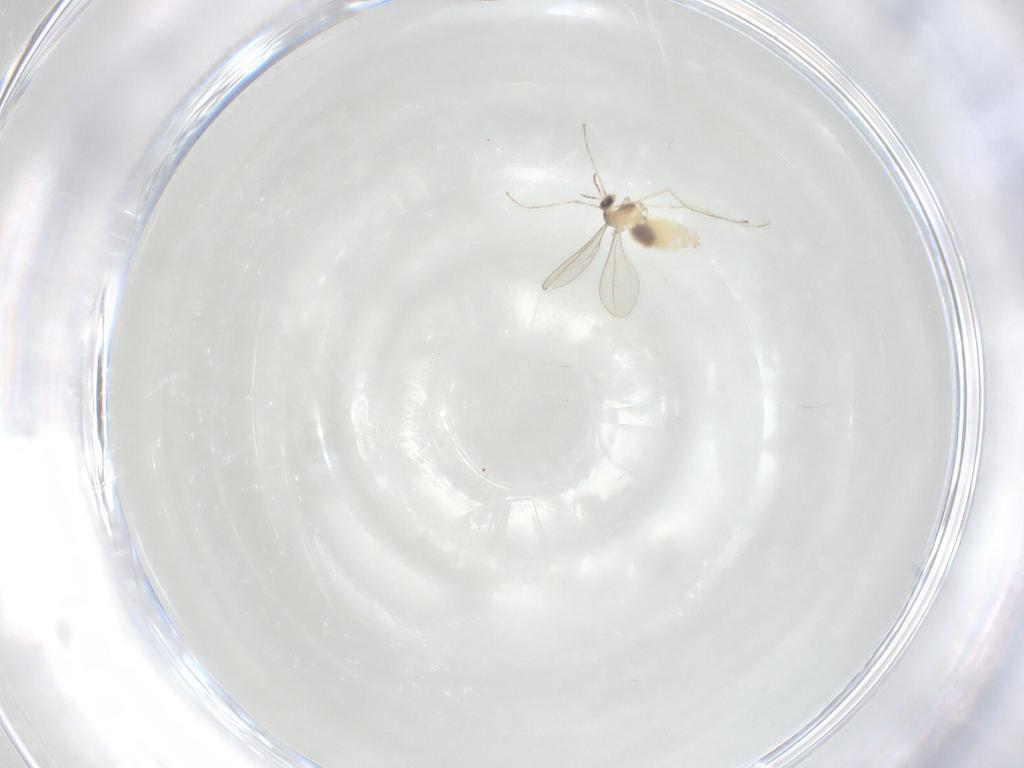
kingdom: Animalia
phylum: Arthropoda
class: Insecta
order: Diptera
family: Cecidomyiidae
